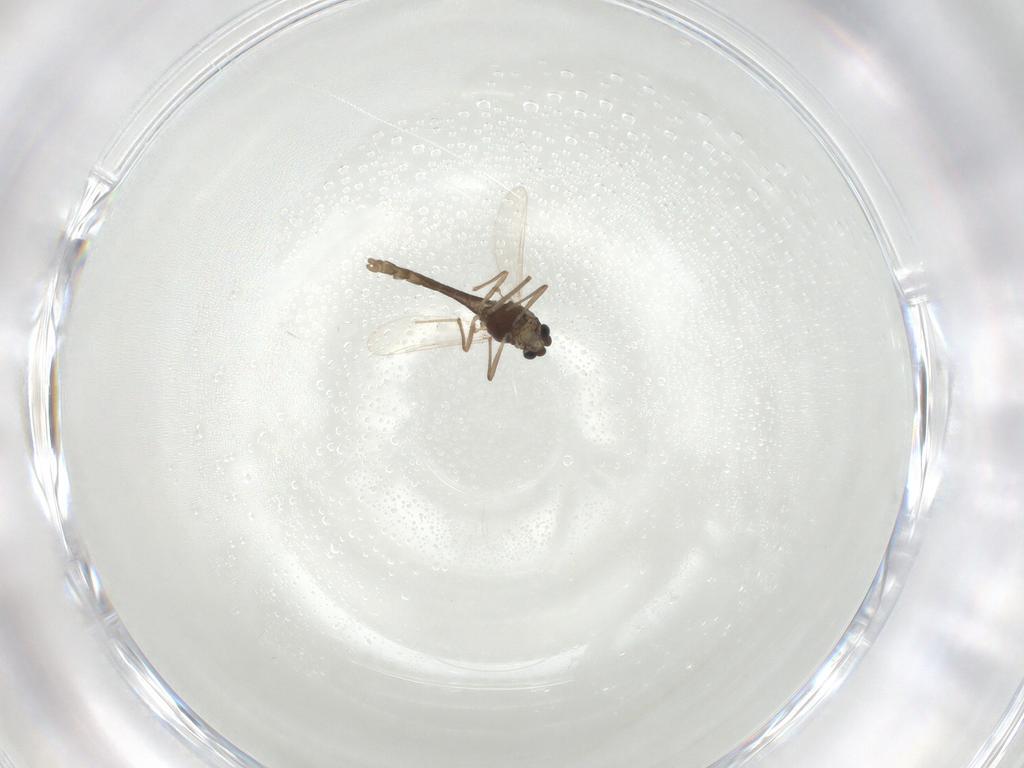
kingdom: Animalia
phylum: Arthropoda
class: Insecta
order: Diptera
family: Chironomidae
